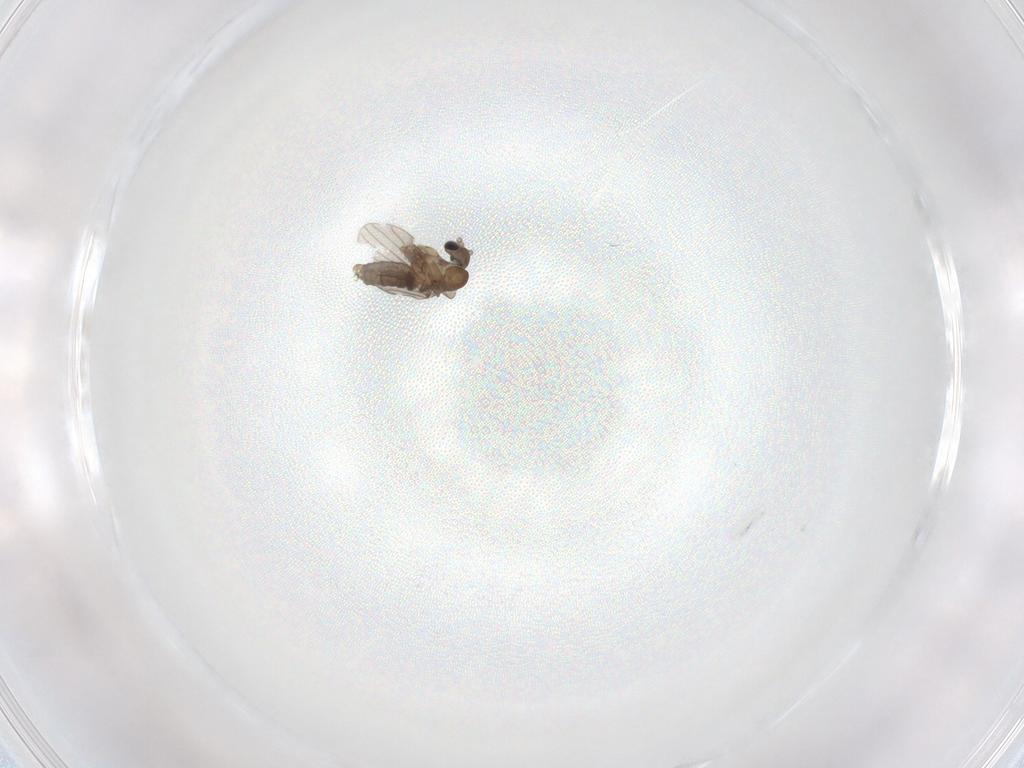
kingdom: Animalia
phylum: Arthropoda
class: Insecta
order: Diptera
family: Psychodidae
